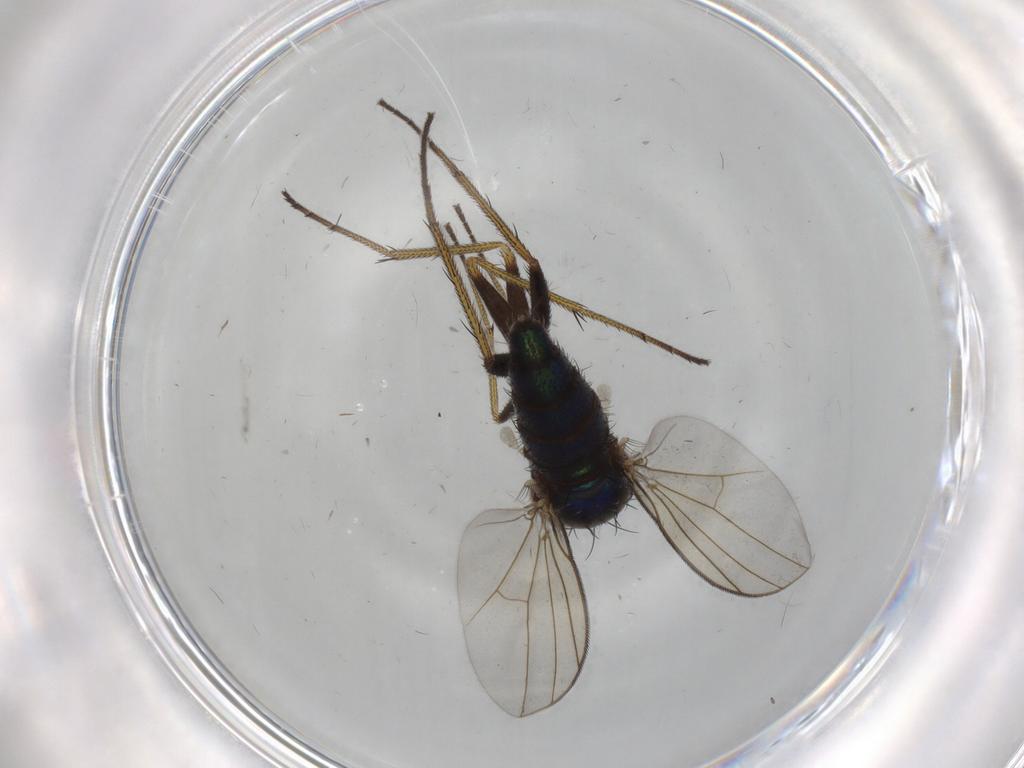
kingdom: Animalia
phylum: Arthropoda
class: Insecta
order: Diptera
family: Dolichopodidae
